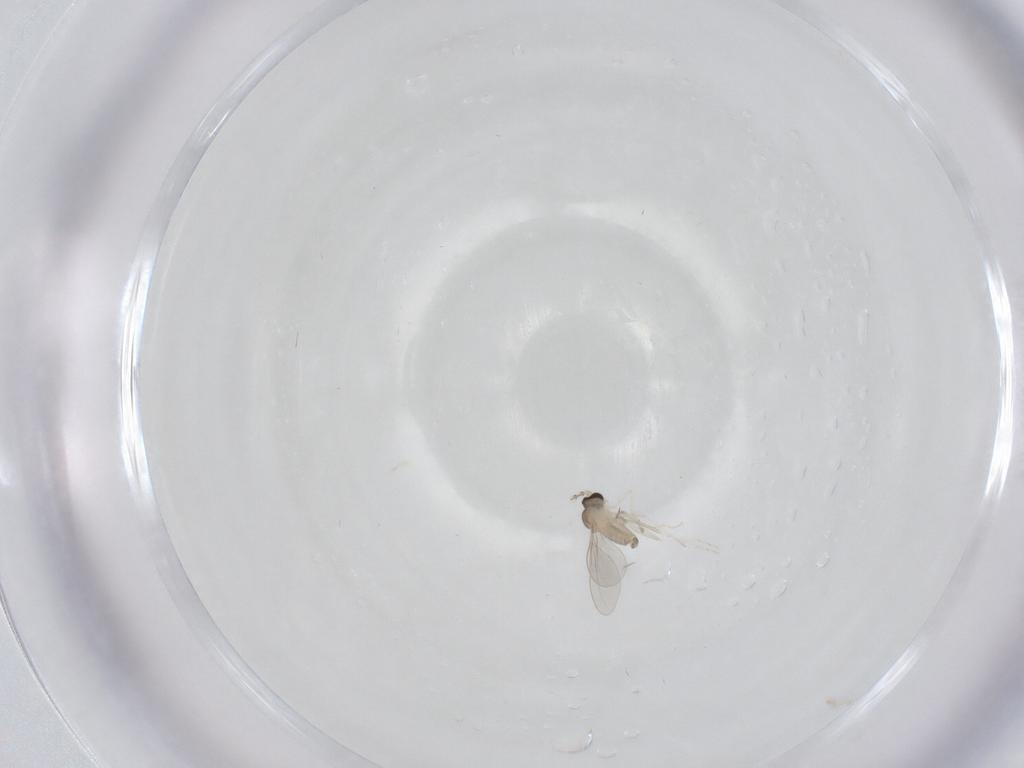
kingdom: Animalia
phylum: Arthropoda
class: Insecta
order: Diptera
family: Cecidomyiidae
